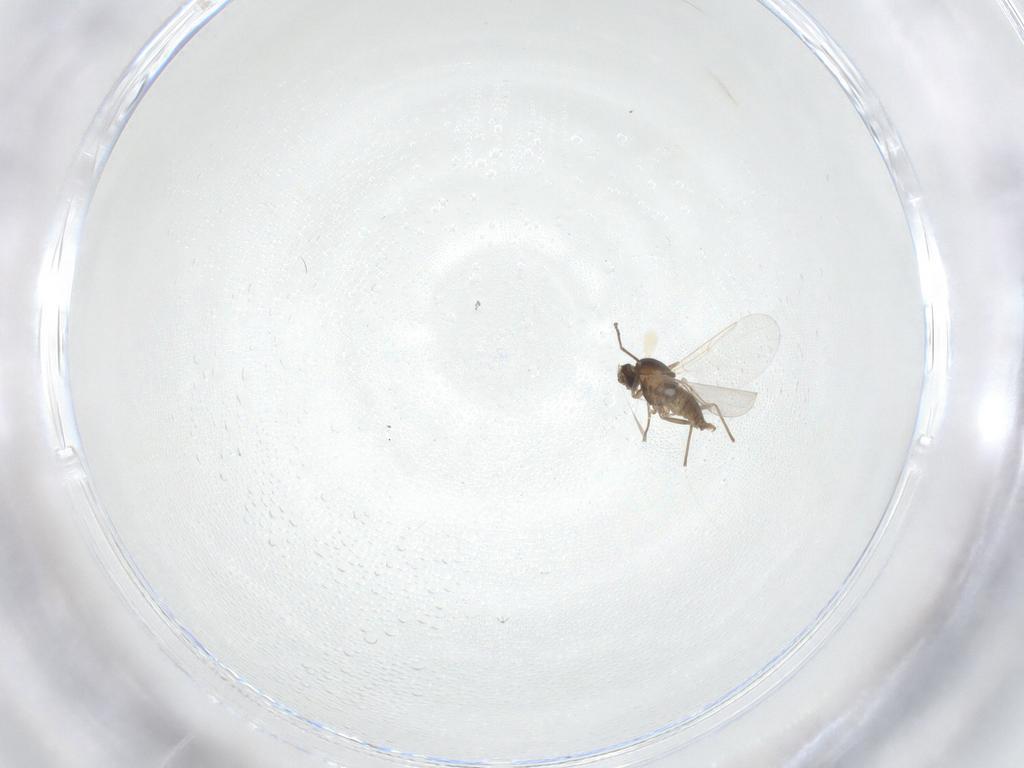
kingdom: Animalia
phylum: Arthropoda
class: Insecta
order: Diptera
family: Cecidomyiidae
